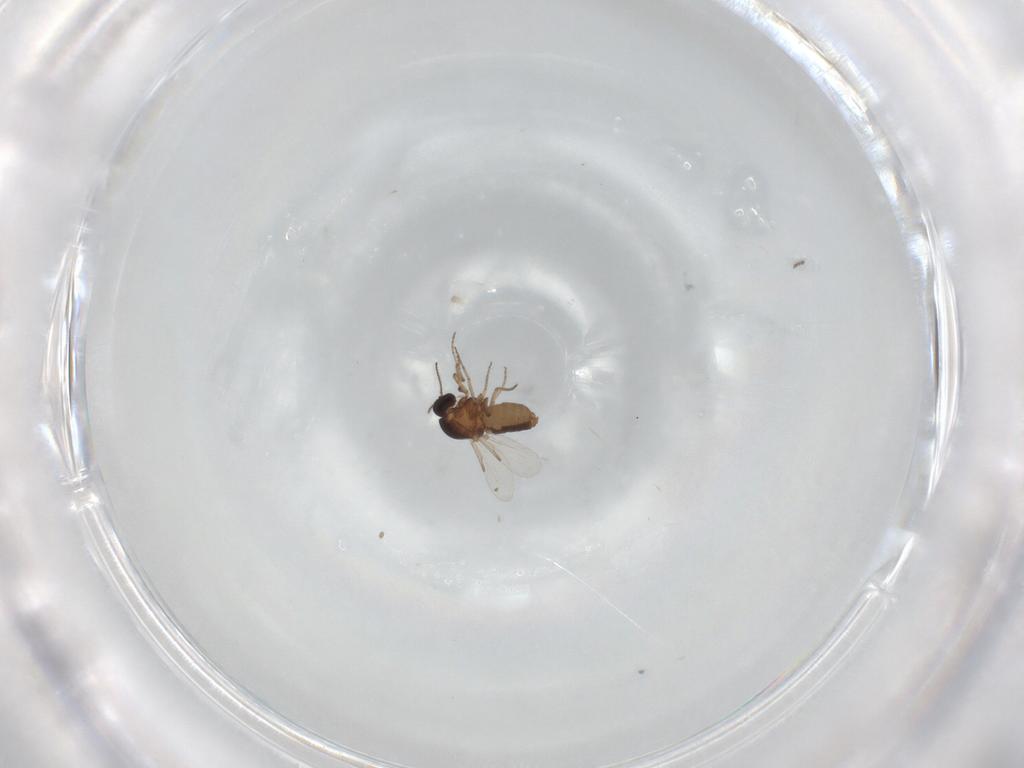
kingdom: Animalia
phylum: Arthropoda
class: Insecta
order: Diptera
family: Ceratopogonidae
